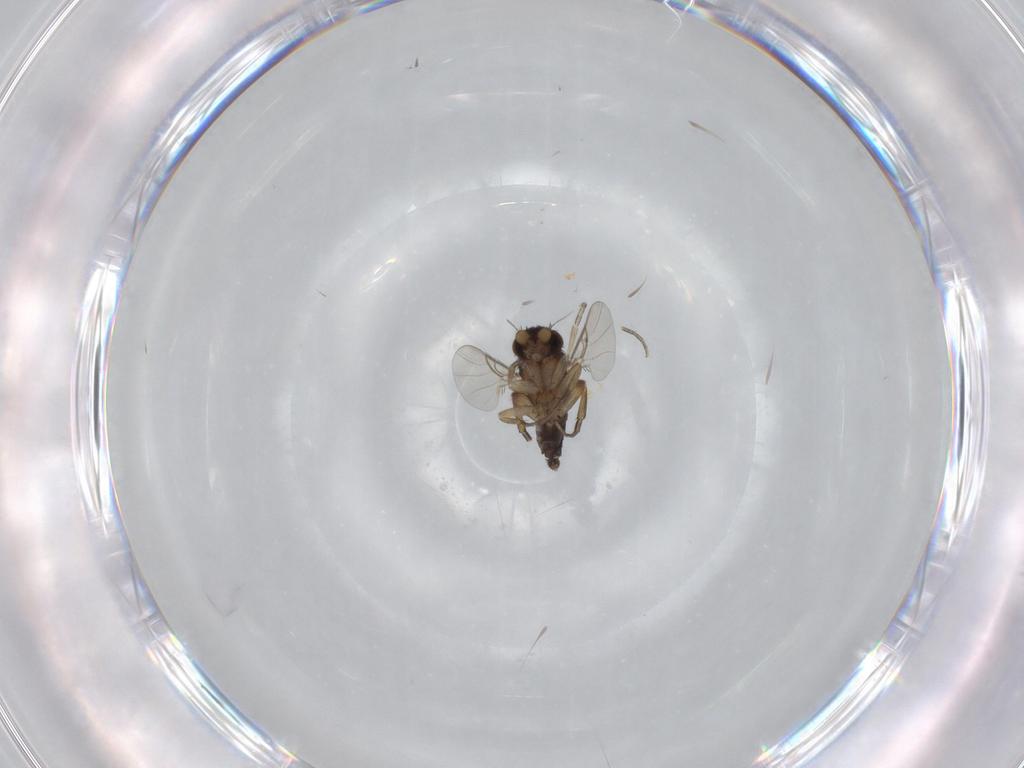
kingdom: Animalia
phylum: Arthropoda
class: Insecta
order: Diptera
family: Phoridae
